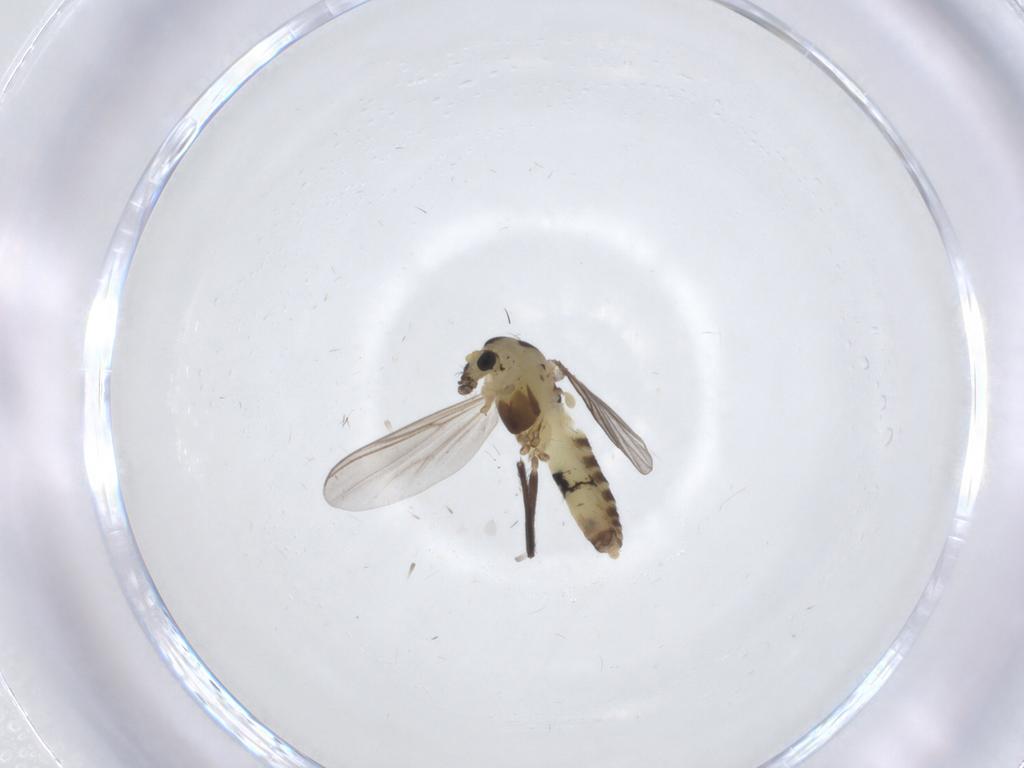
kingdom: Animalia
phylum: Arthropoda
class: Insecta
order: Diptera
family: Chironomidae
